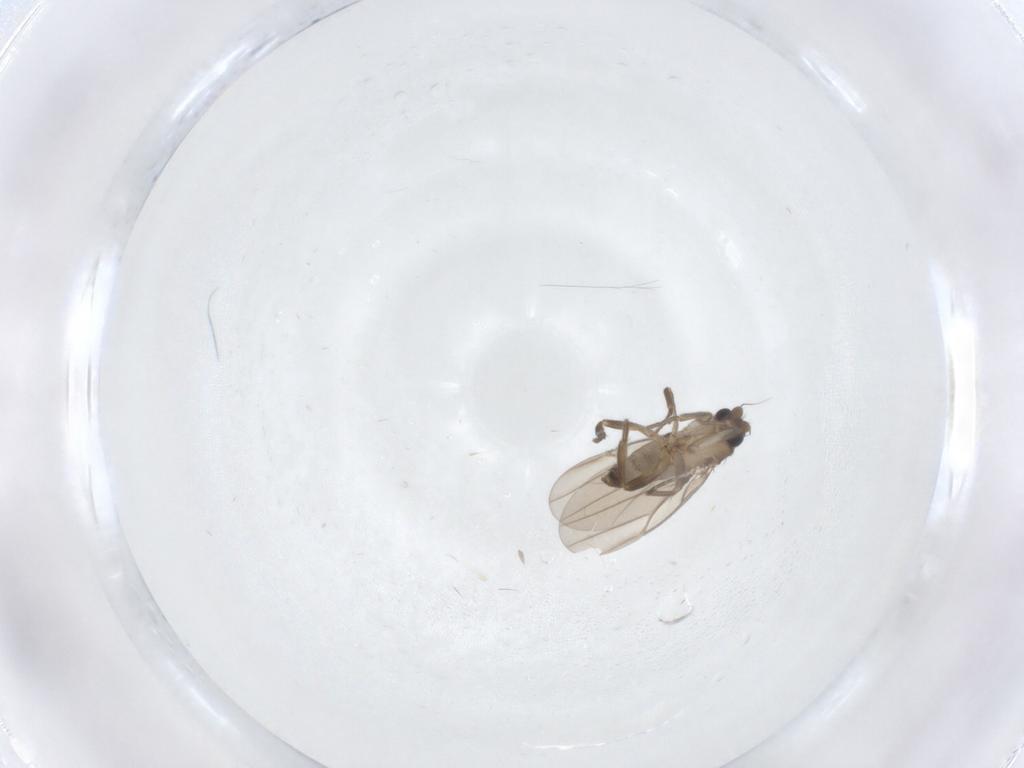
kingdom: Animalia
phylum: Arthropoda
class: Insecta
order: Diptera
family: Chironomidae
